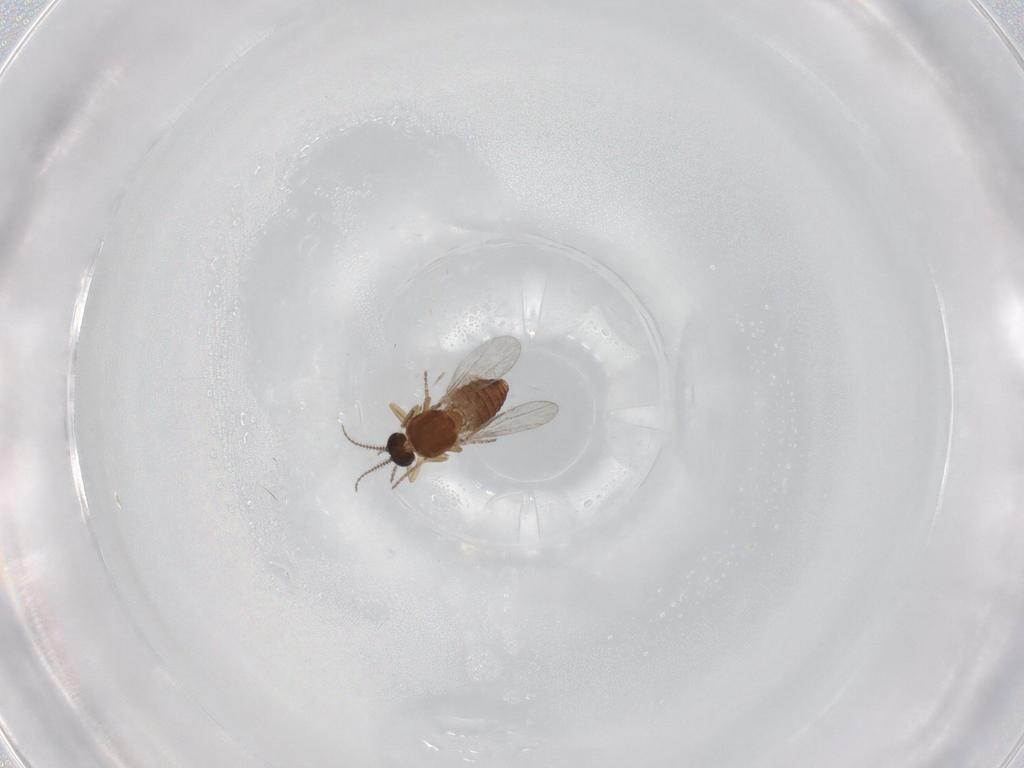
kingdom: Animalia
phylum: Arthropoda
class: Insecta
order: Diptera
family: Ceratopogonidae
